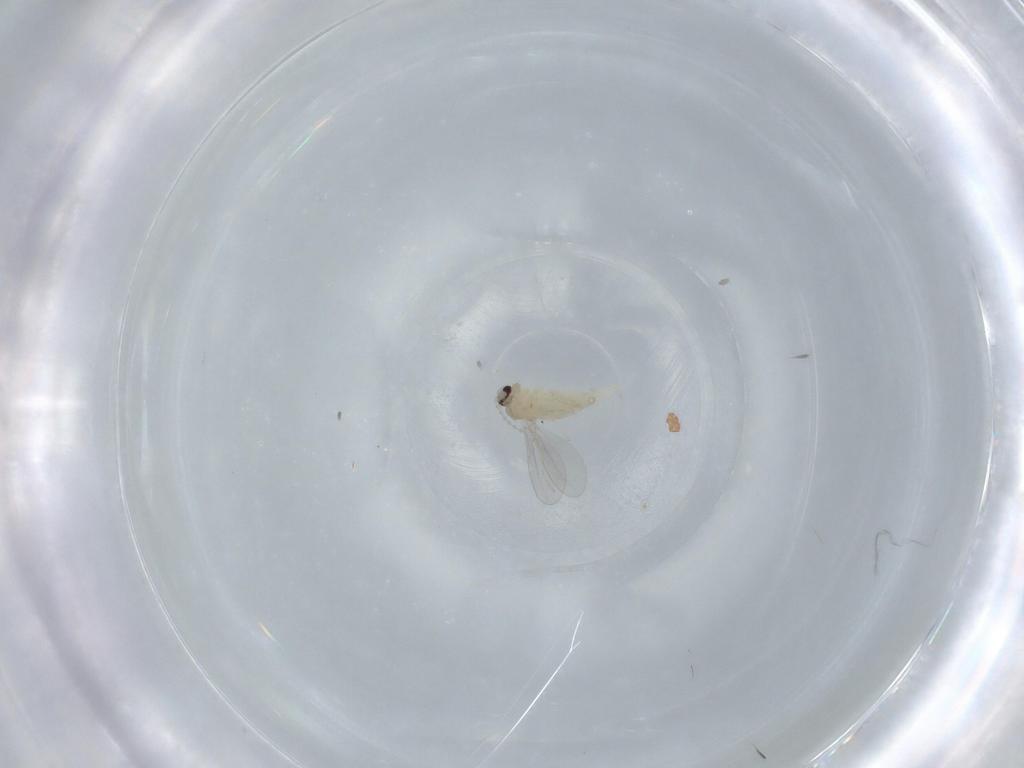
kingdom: Animalia
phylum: Arthropoda
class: Insecta
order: Diptera
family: Cecidomyiidae
